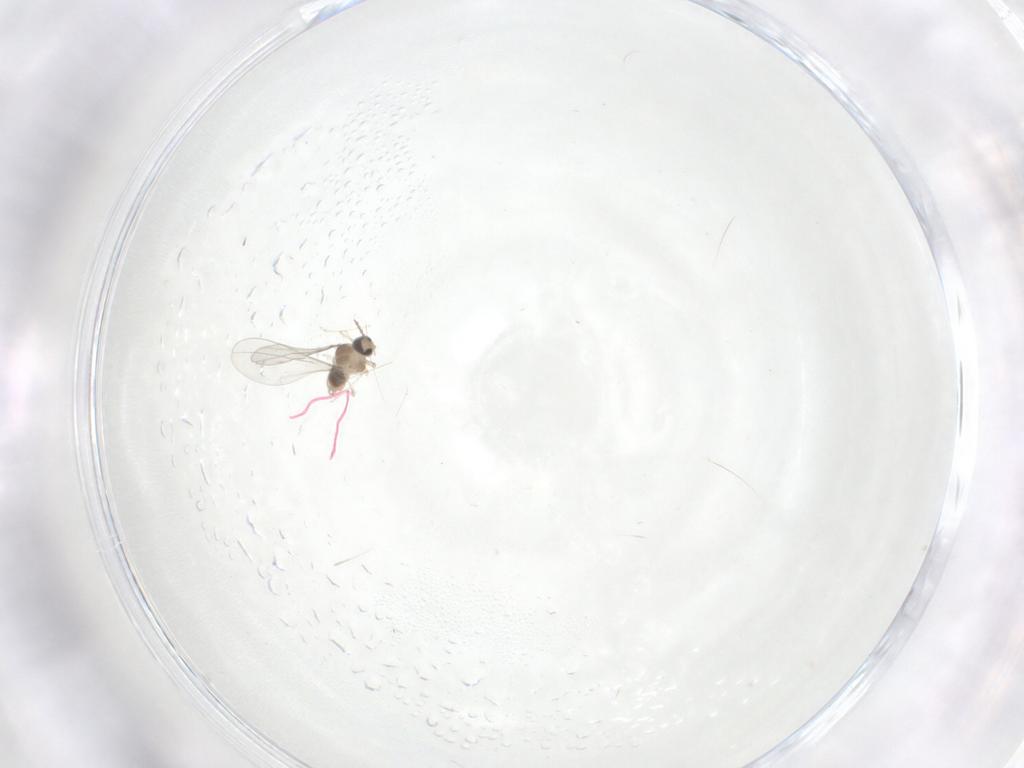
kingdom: Animalia
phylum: Arthropoda
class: Insecta
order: Diptera
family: Cecidomyiidae
